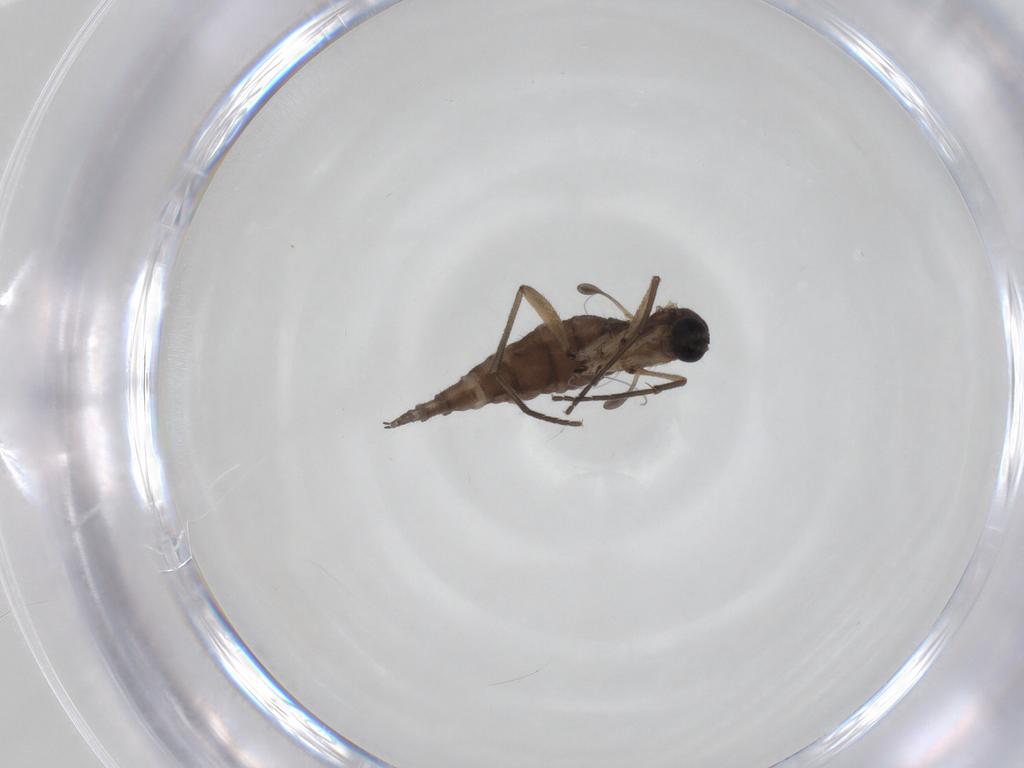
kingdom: Animalia
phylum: Arthropoda
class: Insecta
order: Diptera
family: Sciaridae
